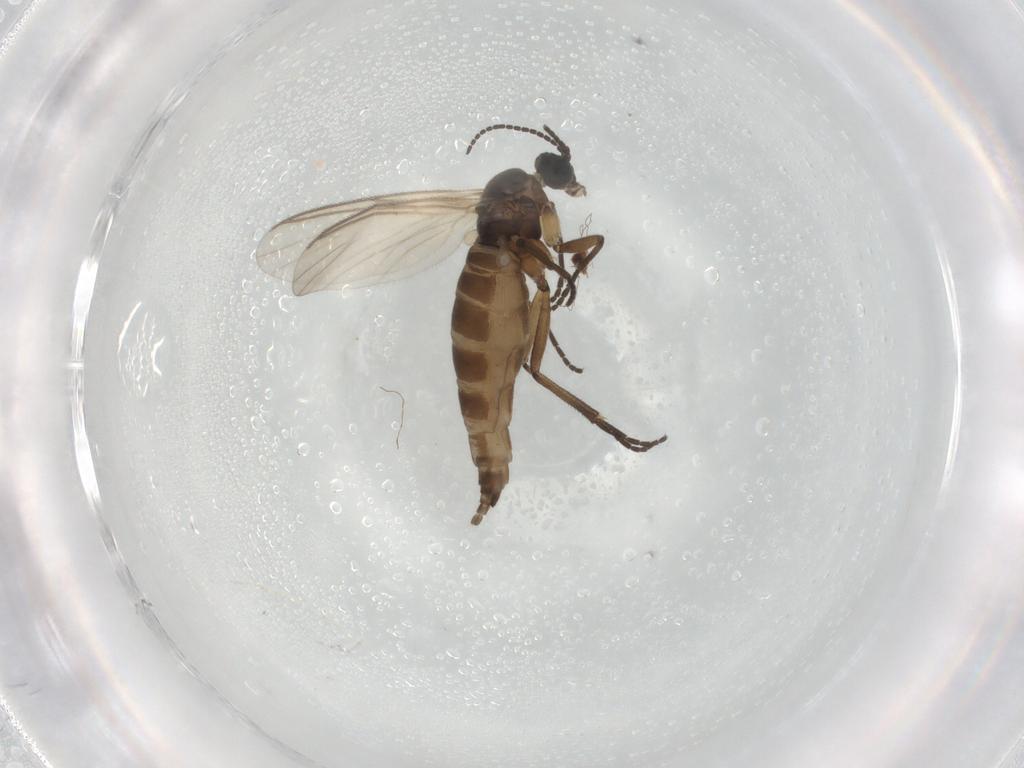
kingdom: Animalia
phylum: Arthropoda
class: Insecta
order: Diptera
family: Sciaridae
